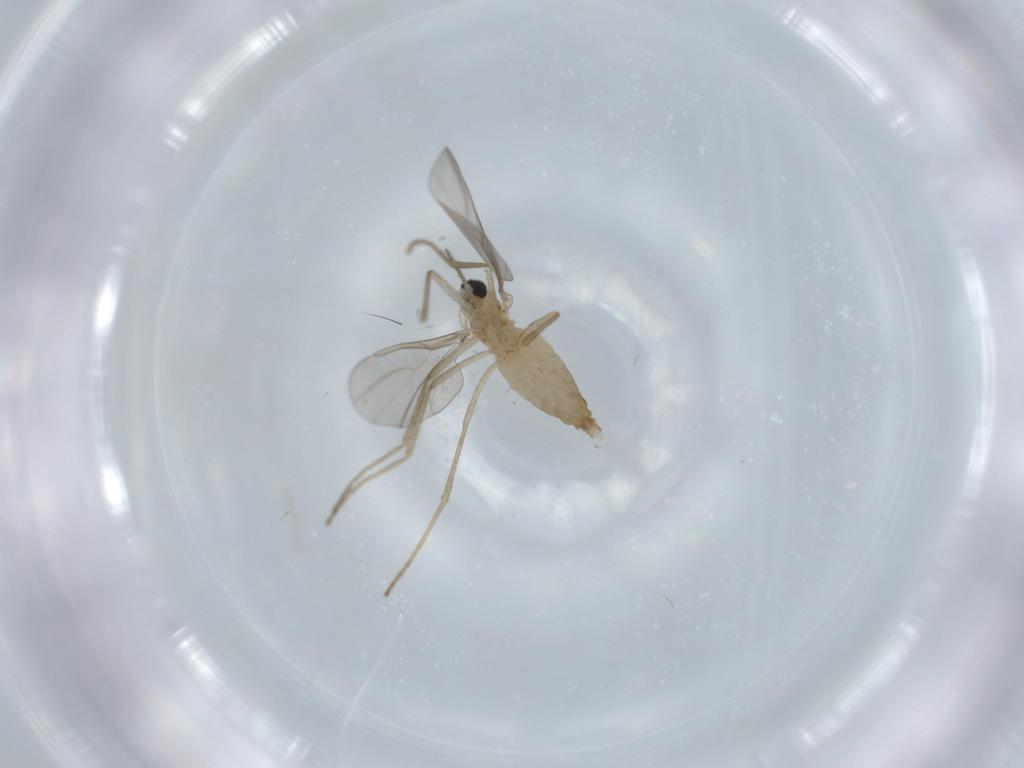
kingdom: Animalia
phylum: Arthropoda
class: Insecta
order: Diptera
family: Cecidomyiidae
